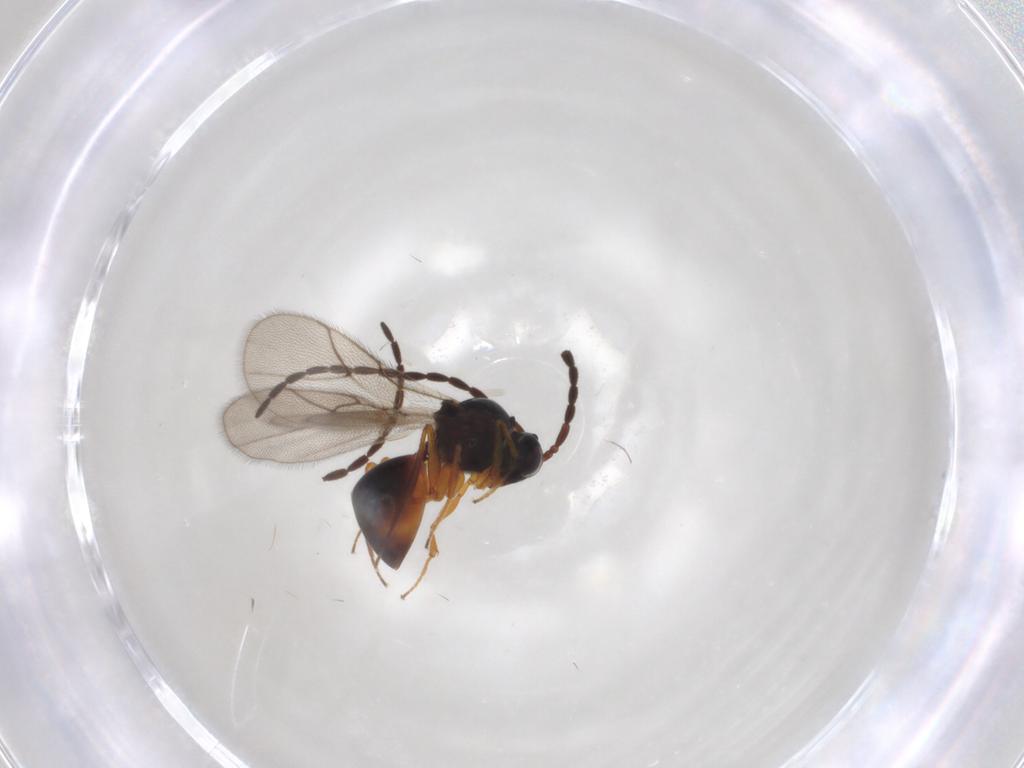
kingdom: Animalia
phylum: Arthropoda
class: Insecta
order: Hymenoptera
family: Figitidae
